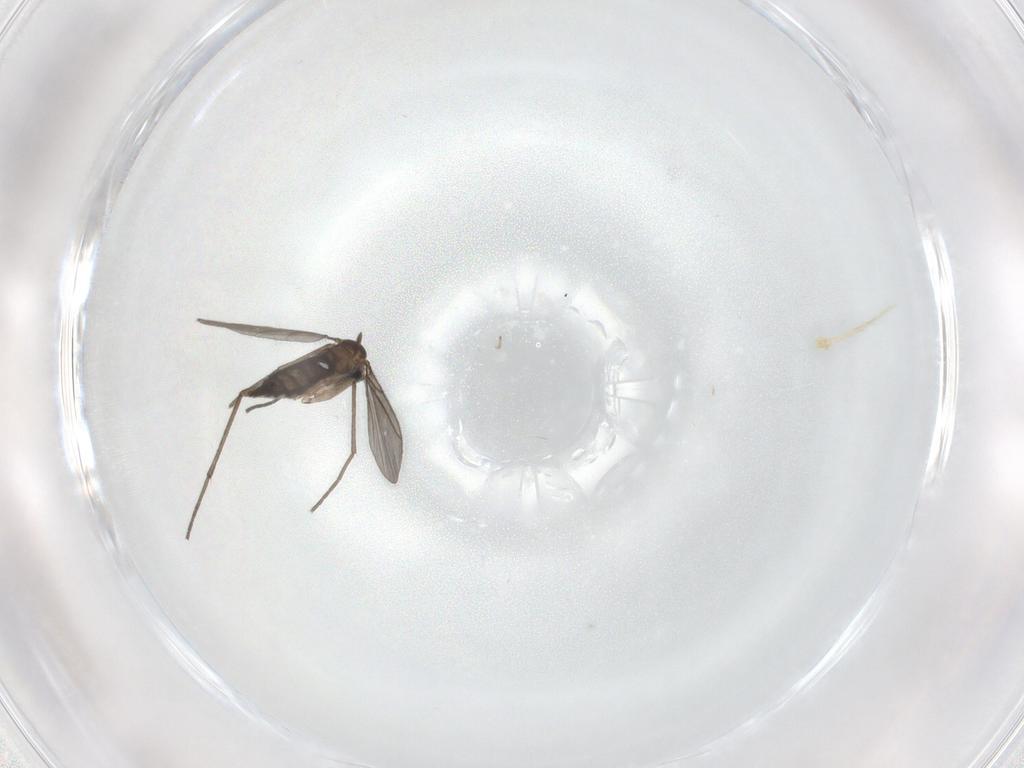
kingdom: Animalia
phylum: Arthropoda
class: Insecta
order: Diptera
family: Sciaridae
